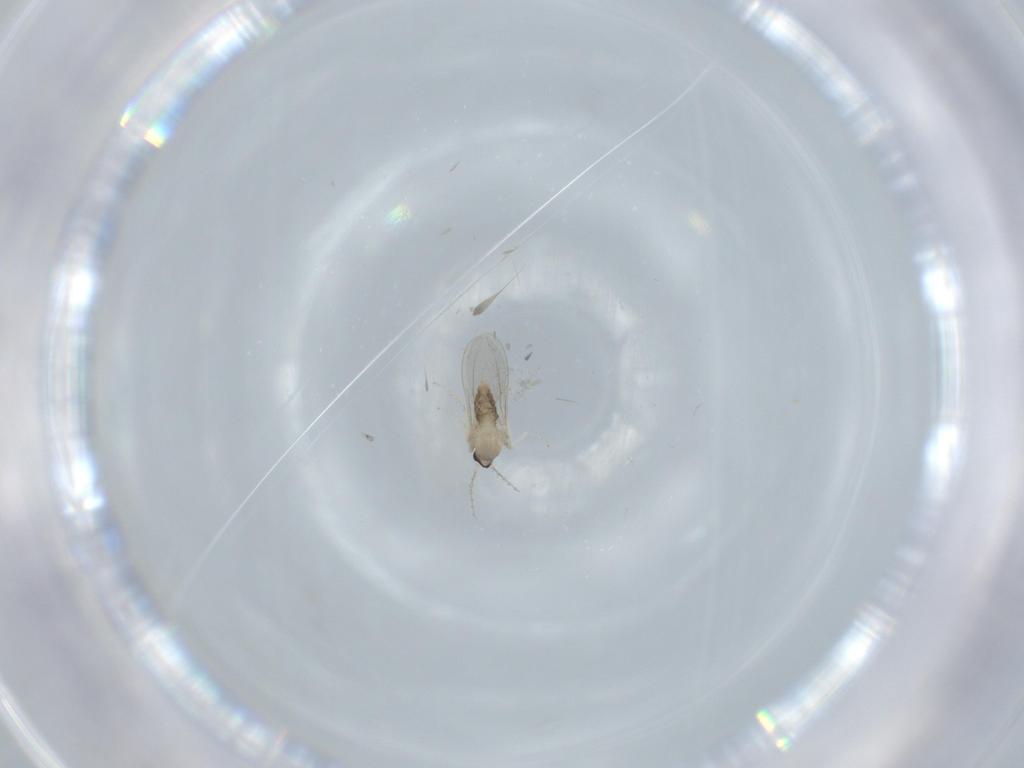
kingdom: Animalia
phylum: Arthropoda
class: Insecta
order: Diptera
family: Cecidomyiidae
